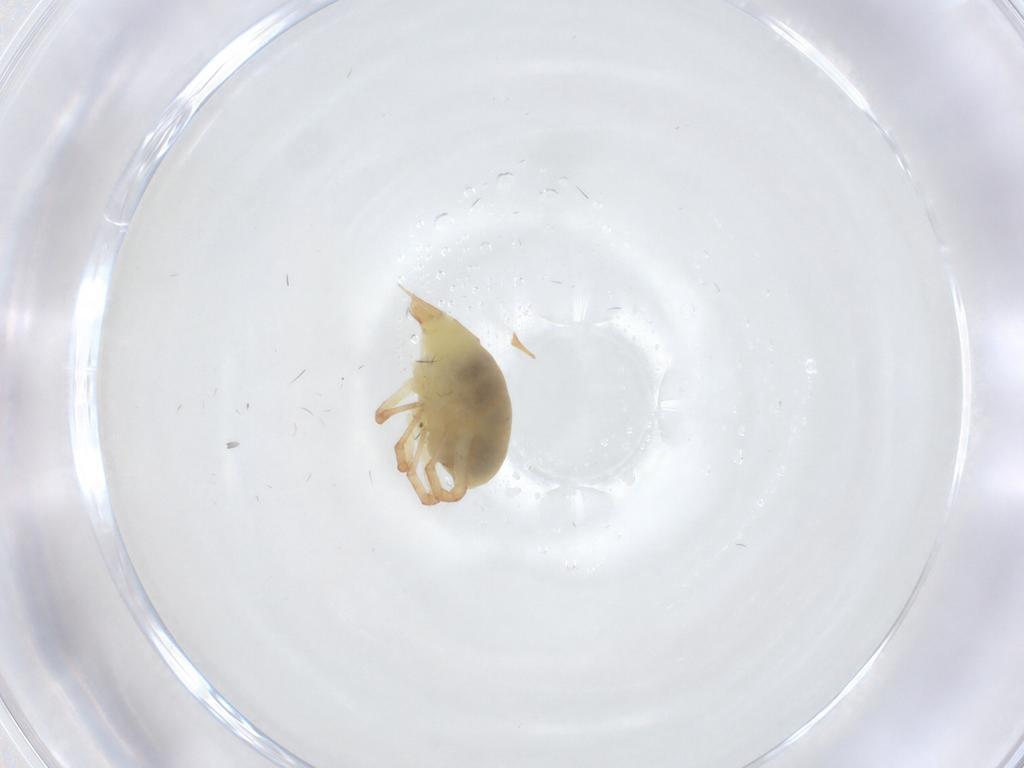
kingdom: Animalia
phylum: Arthropoda
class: Arachnida
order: Trombidiformes
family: Bdellidae
